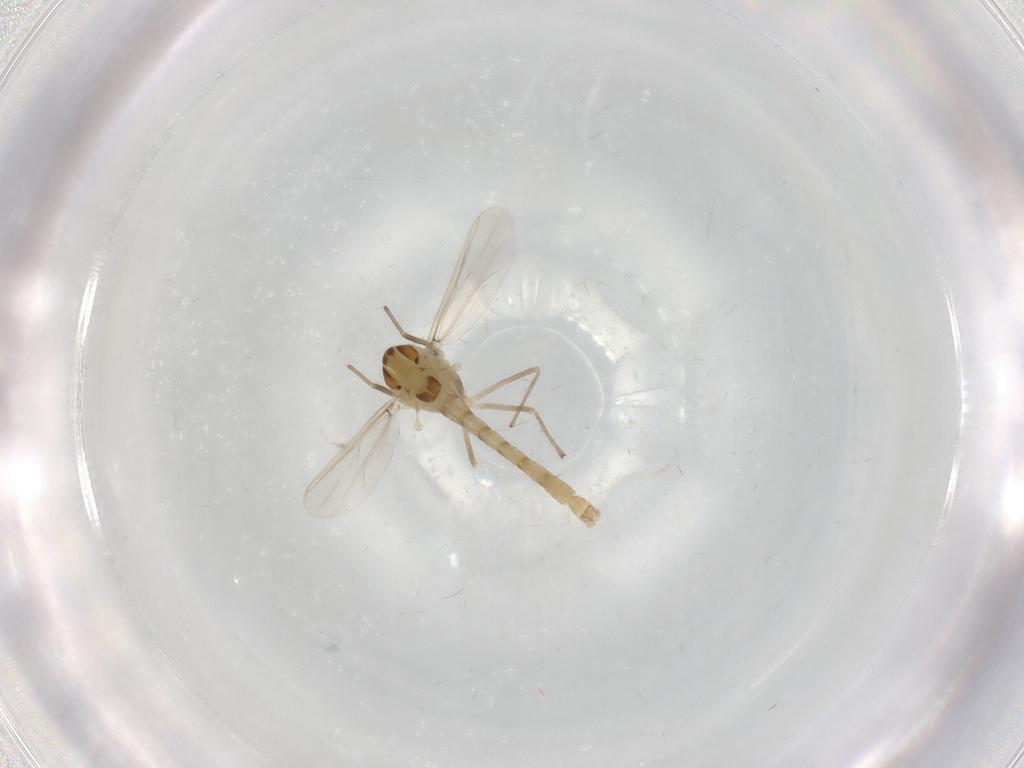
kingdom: Animalia
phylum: Arthropoda
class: Insecta
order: Diptera
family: Chironomidae
